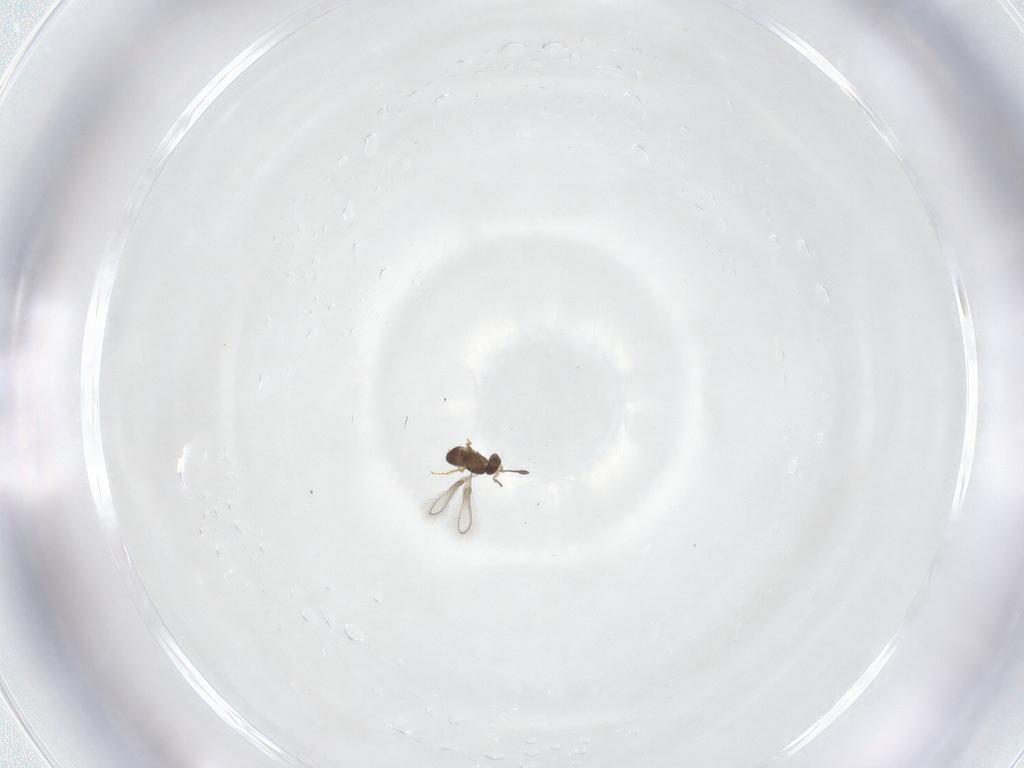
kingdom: Animalia
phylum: Arthropoda
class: Insecta
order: Hymenoptera
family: Mymaridae
